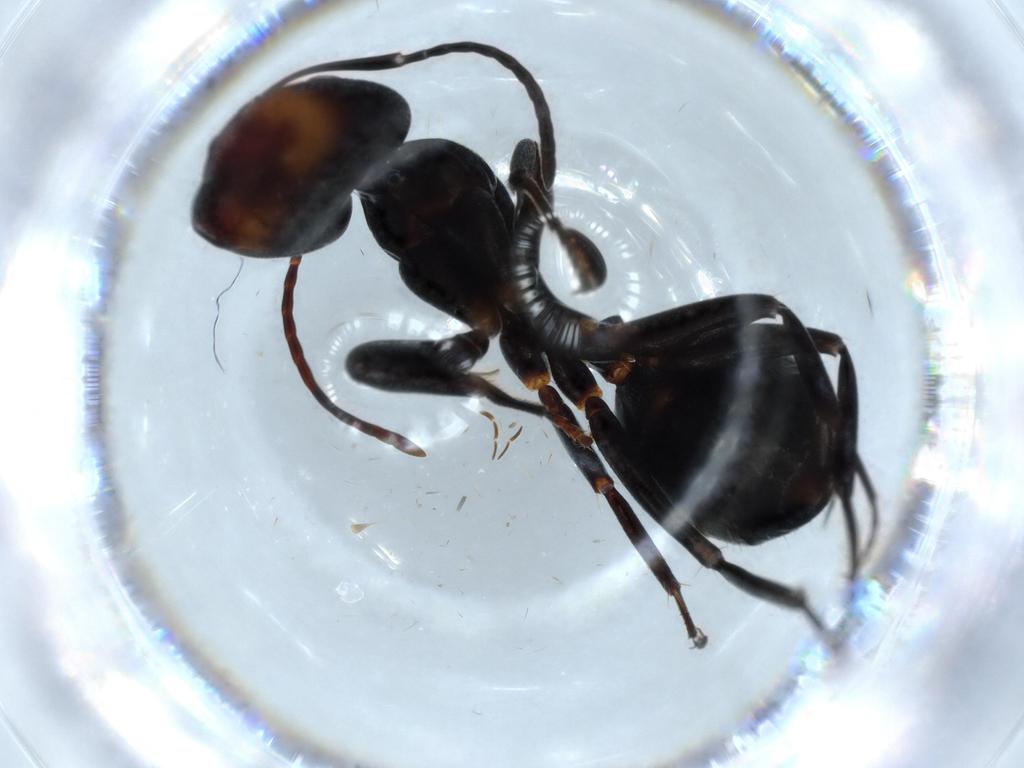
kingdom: Animalia
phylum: Arthropoda
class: Insecta
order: Hymenoptera
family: Formicidae
